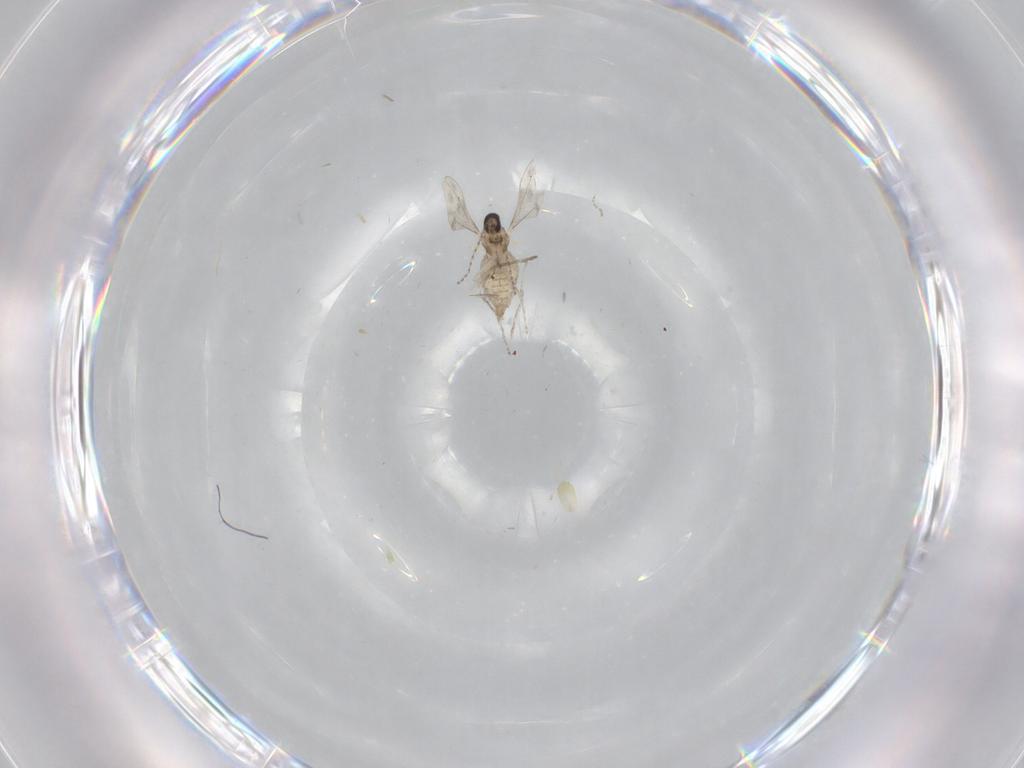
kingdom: Animalia
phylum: Arthropoda
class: Insecta
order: Diptera
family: Cecidomyiidae
